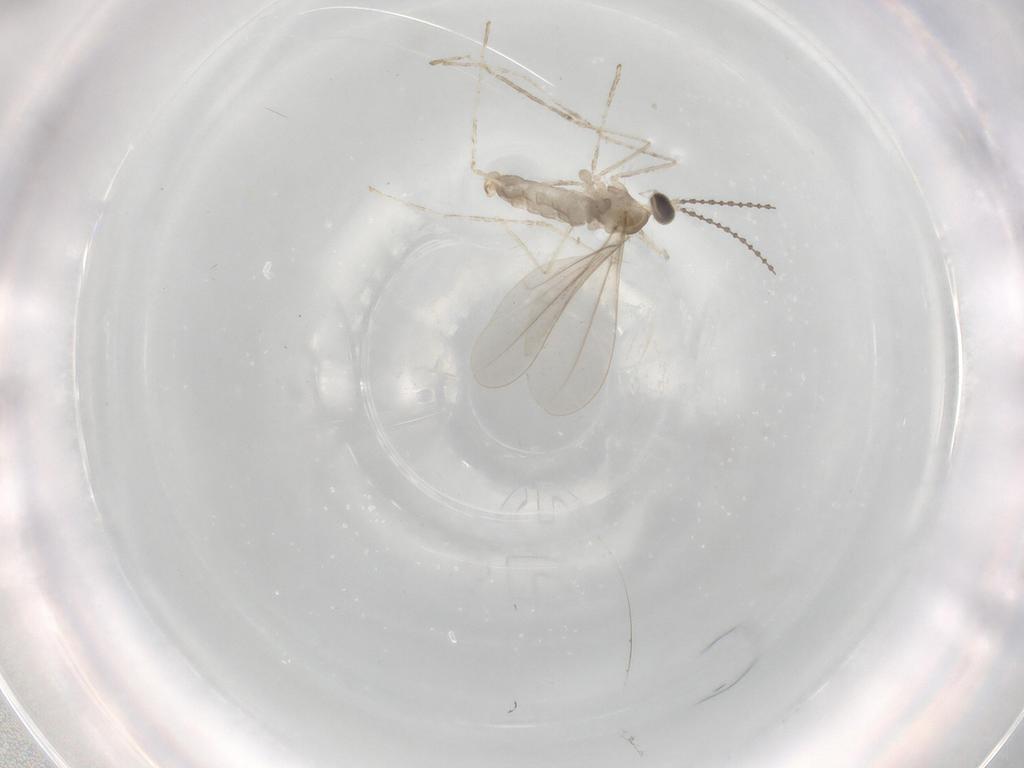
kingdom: Animalia
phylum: Arthropoda
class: Insecta
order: Diptera
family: Cecidomyiidae
